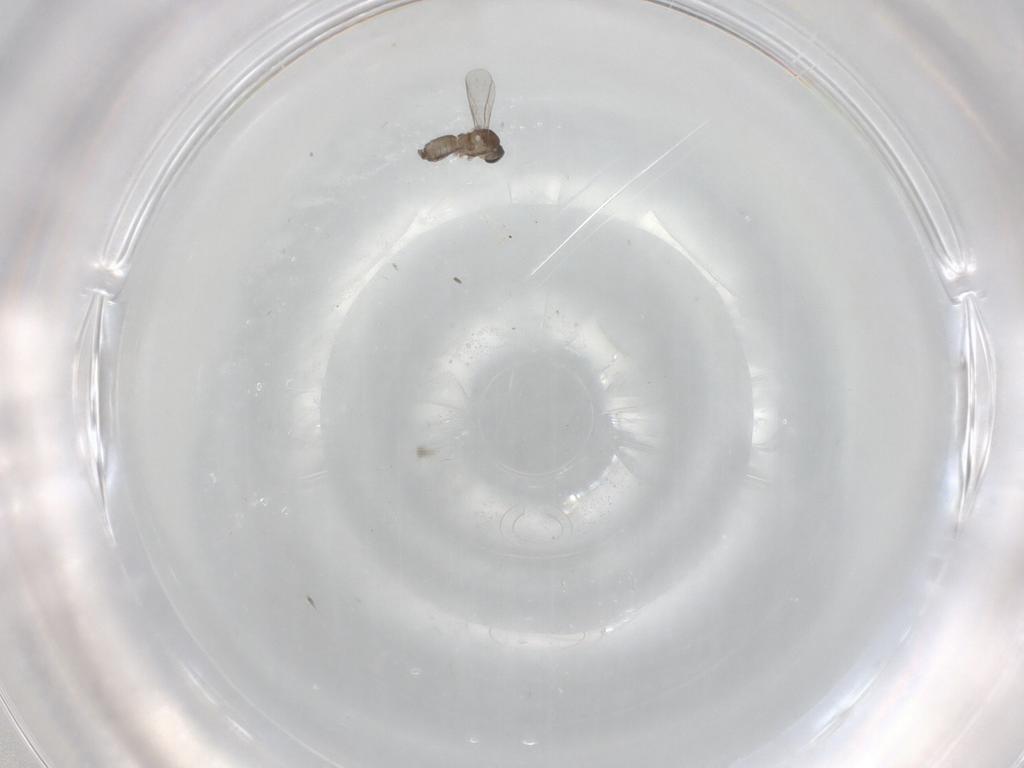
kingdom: Animalia
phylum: Arthropoda
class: Insecta
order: Diptera
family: Cecidomyiidae
